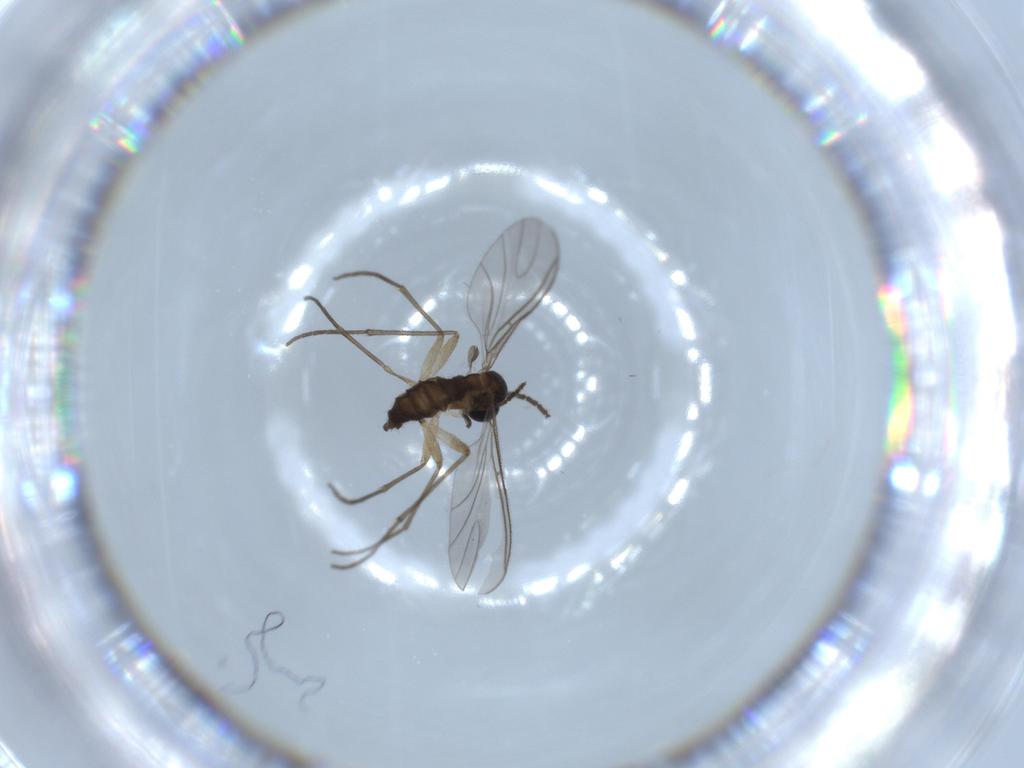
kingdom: Animalia
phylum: Arthropoda
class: Insecta
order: Diptera
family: Sciaridae
